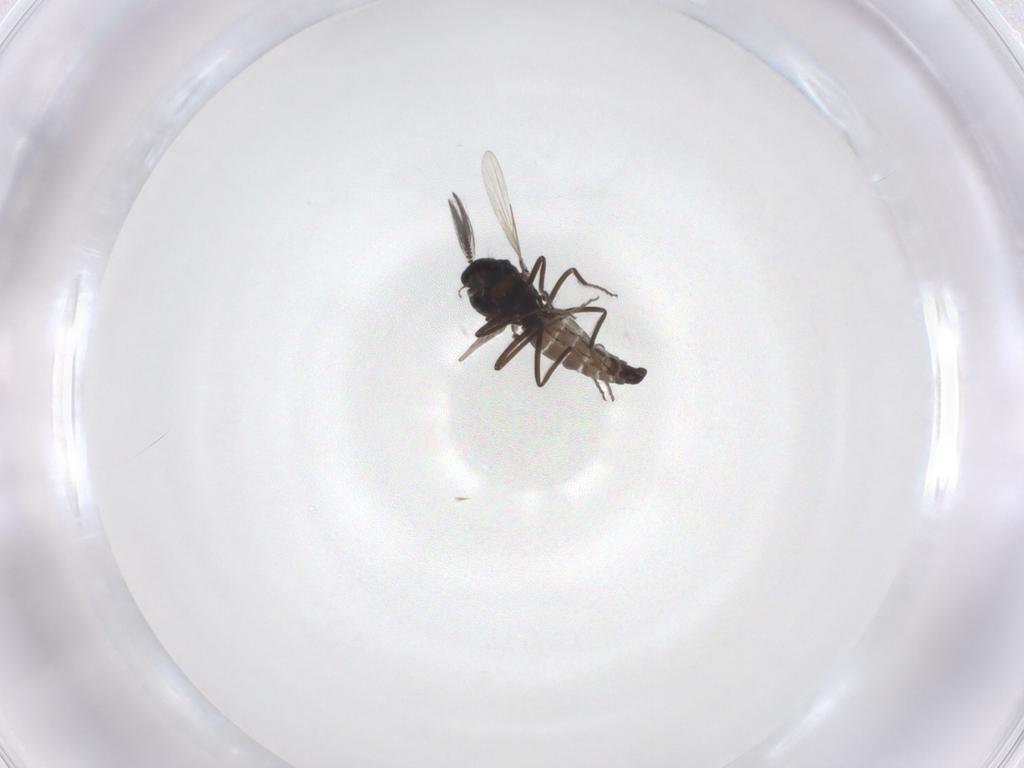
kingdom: Animalia
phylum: Arthropoda
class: Insecta
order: Diptera
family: Ceratopogonidae
